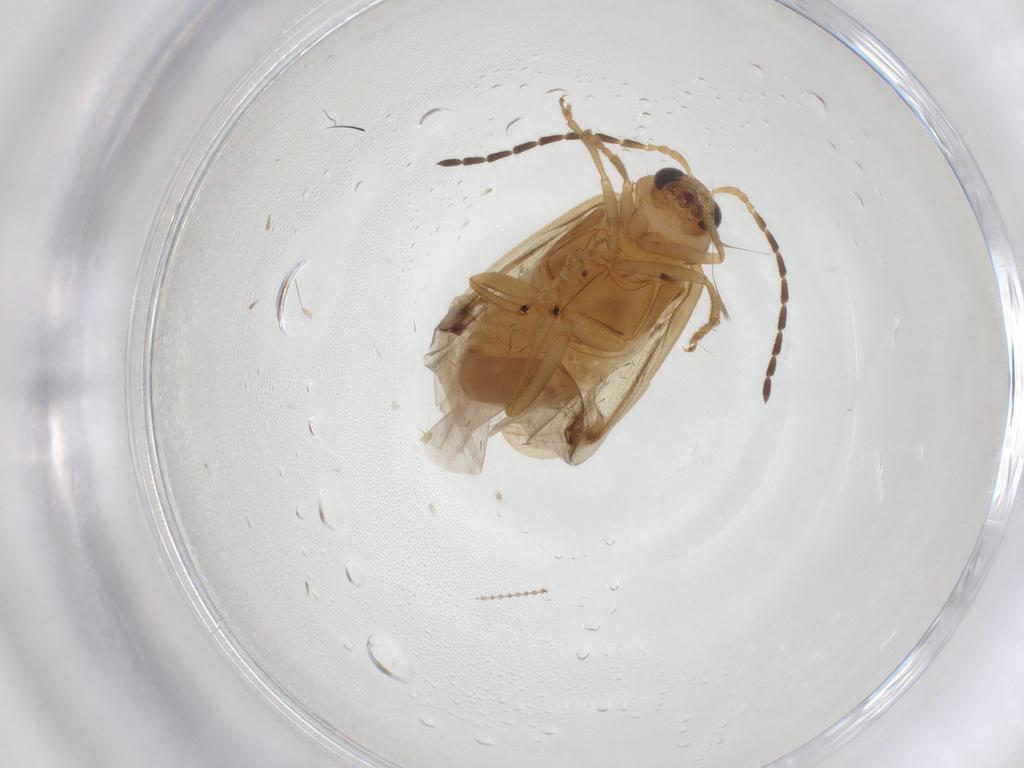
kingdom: Animalia
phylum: Arthropoda
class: Insecta
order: Coleoptera
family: Chrysomelidae
